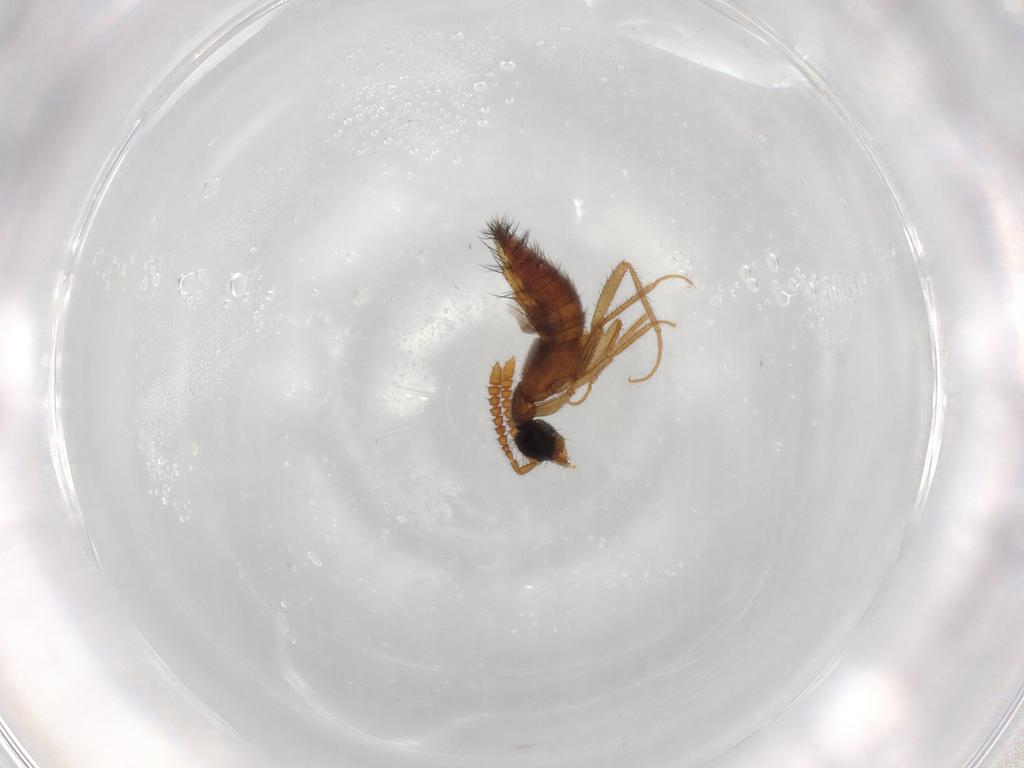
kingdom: Animalia
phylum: Arthropoda
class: Insecta
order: Coleoptera
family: Staphylinidae
